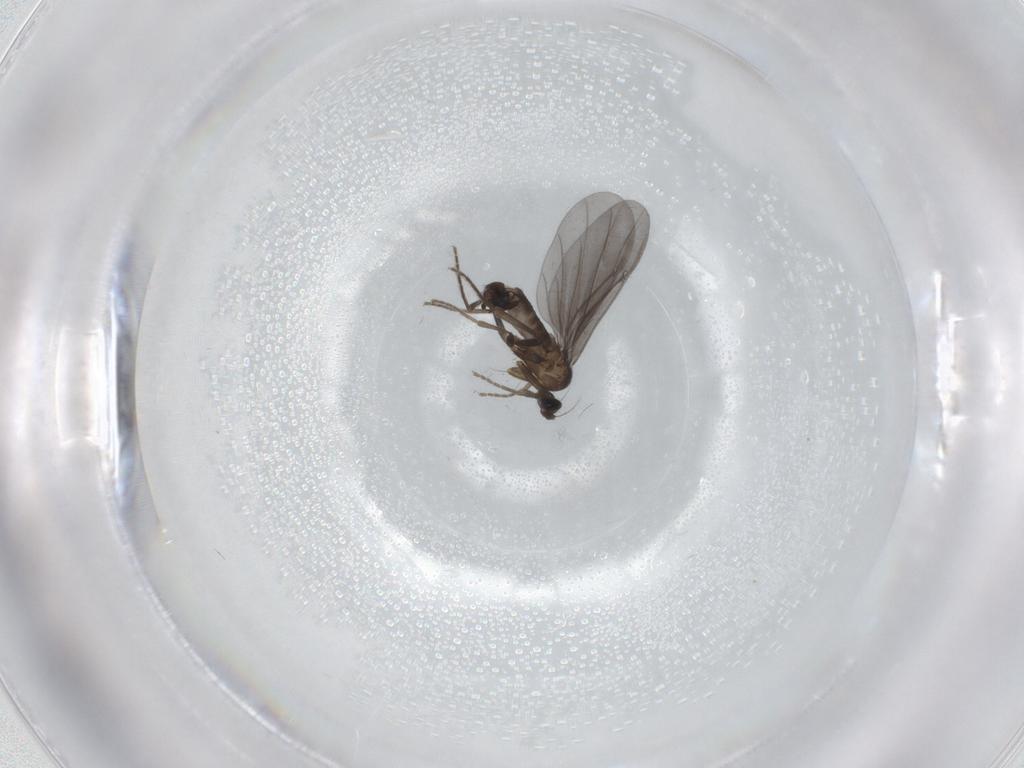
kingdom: Animalia
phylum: Arthropoda
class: Insecta
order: Diptera
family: Phoridae
